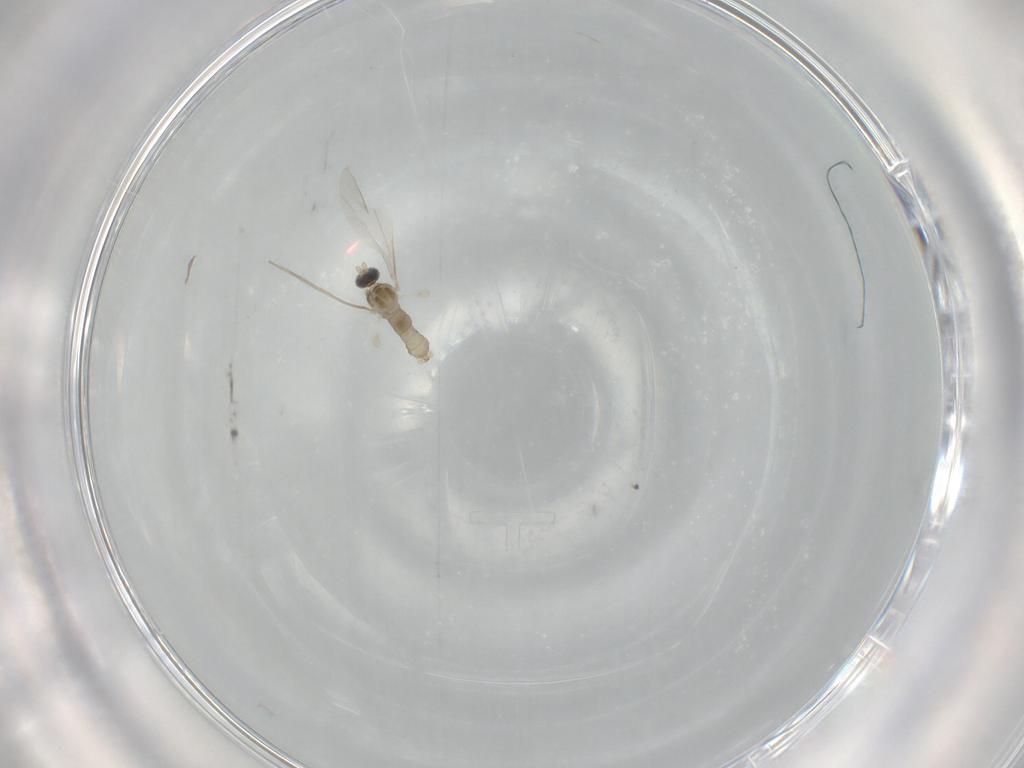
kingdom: Animalia
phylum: Arthropoda
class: Insecta
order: Diptera
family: Cecidomyiidae
